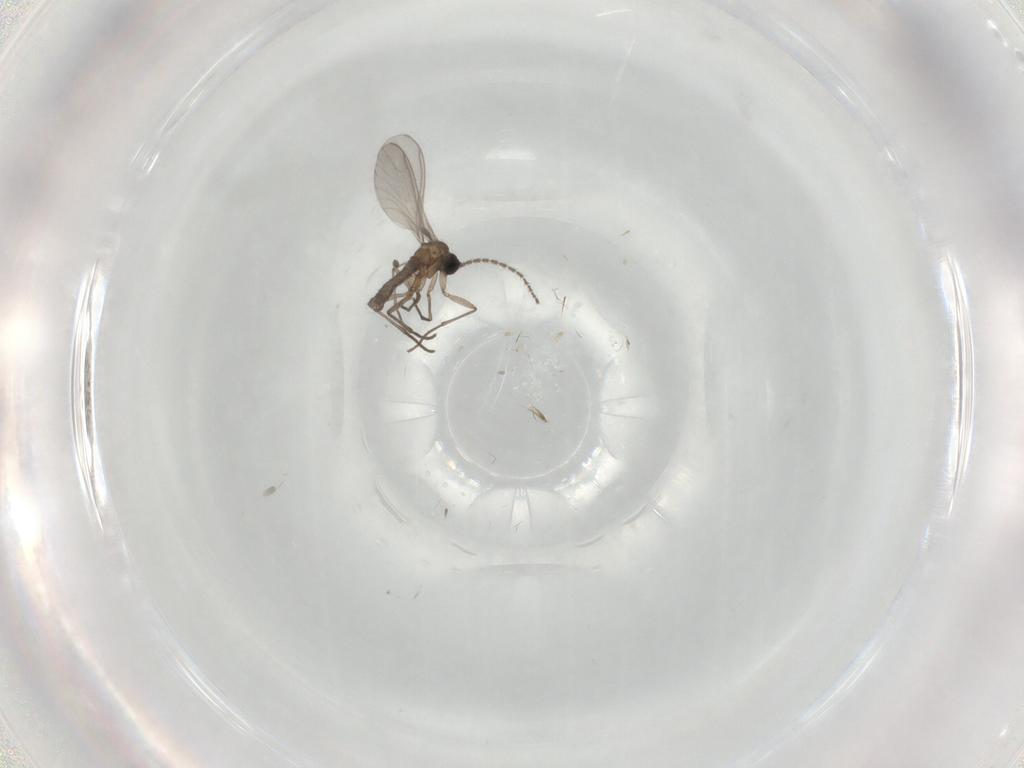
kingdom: Animalia
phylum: Arthropoda
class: Insecta
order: Diptera
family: Sciaridae
